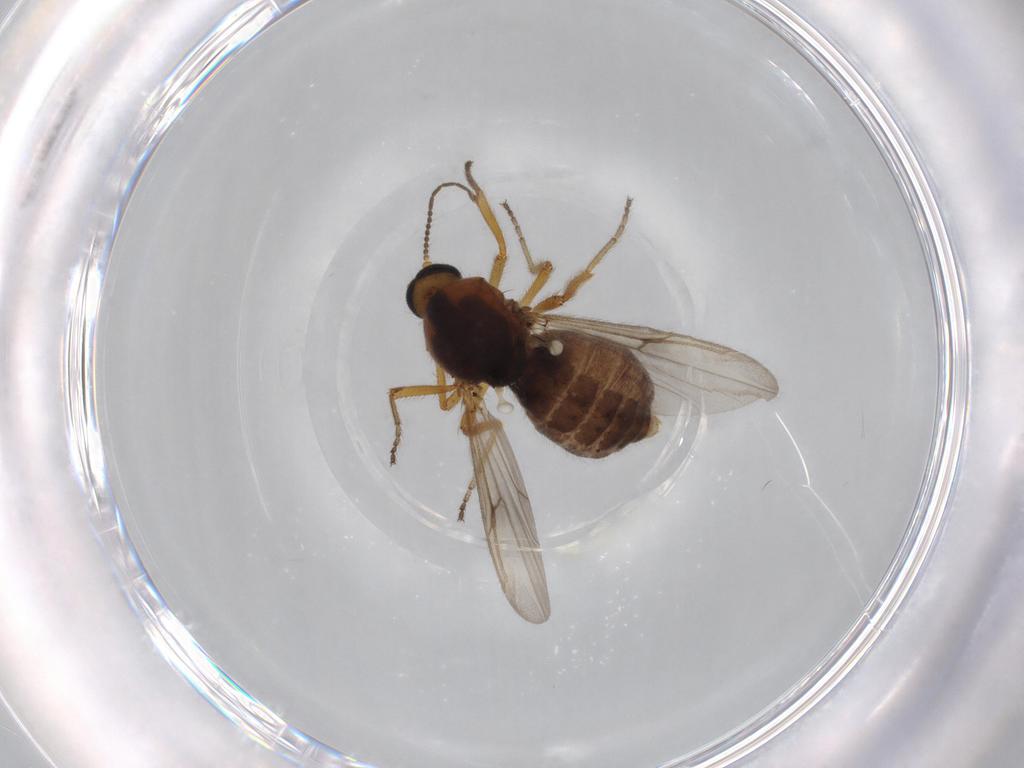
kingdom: Animalia
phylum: Arthropoda
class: Insecta
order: Diptera
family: Ceratopogonidae
